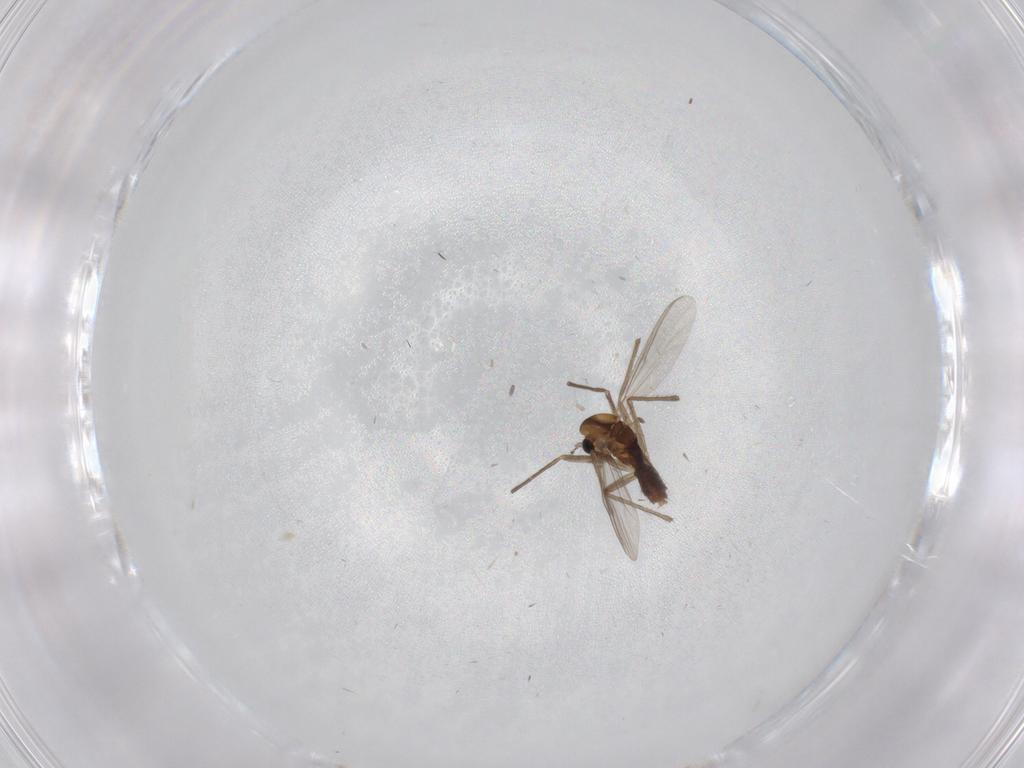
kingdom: Animalia
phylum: Arthropoda
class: Insecta
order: Diptera
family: Chironomidae
